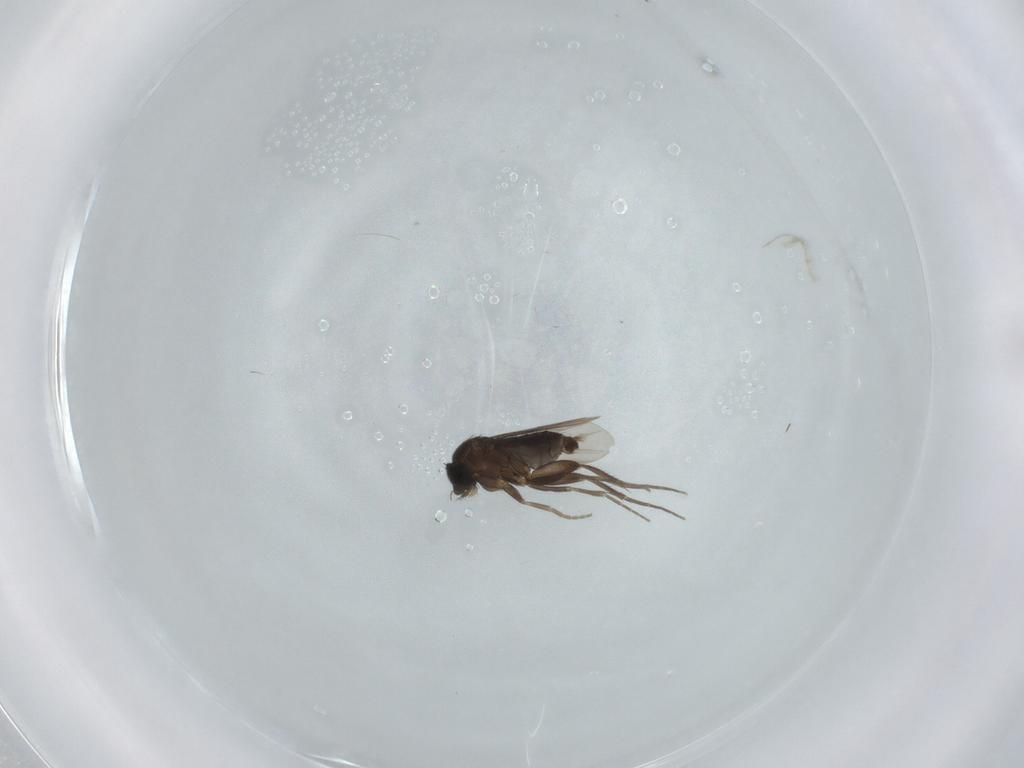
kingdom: Animalia
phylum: Arthropoda
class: Insecta
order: Diptera
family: Phoridae
